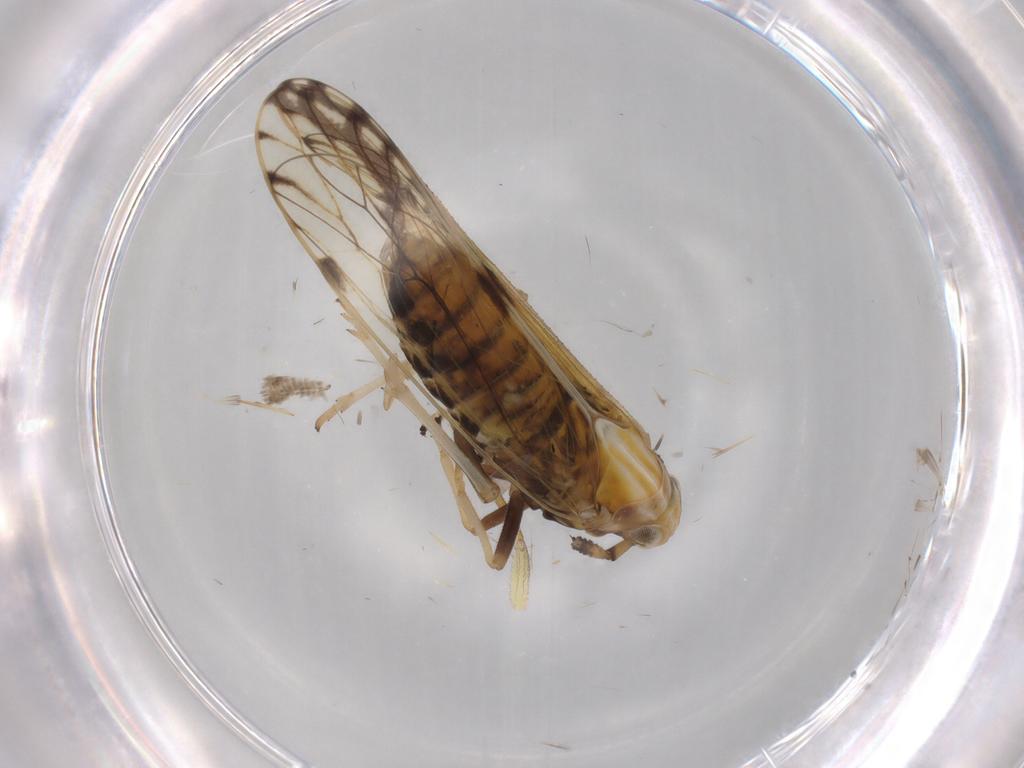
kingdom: Animalia
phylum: Arthropoda
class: Insecta
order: Hemiptera
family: Delphacidae
